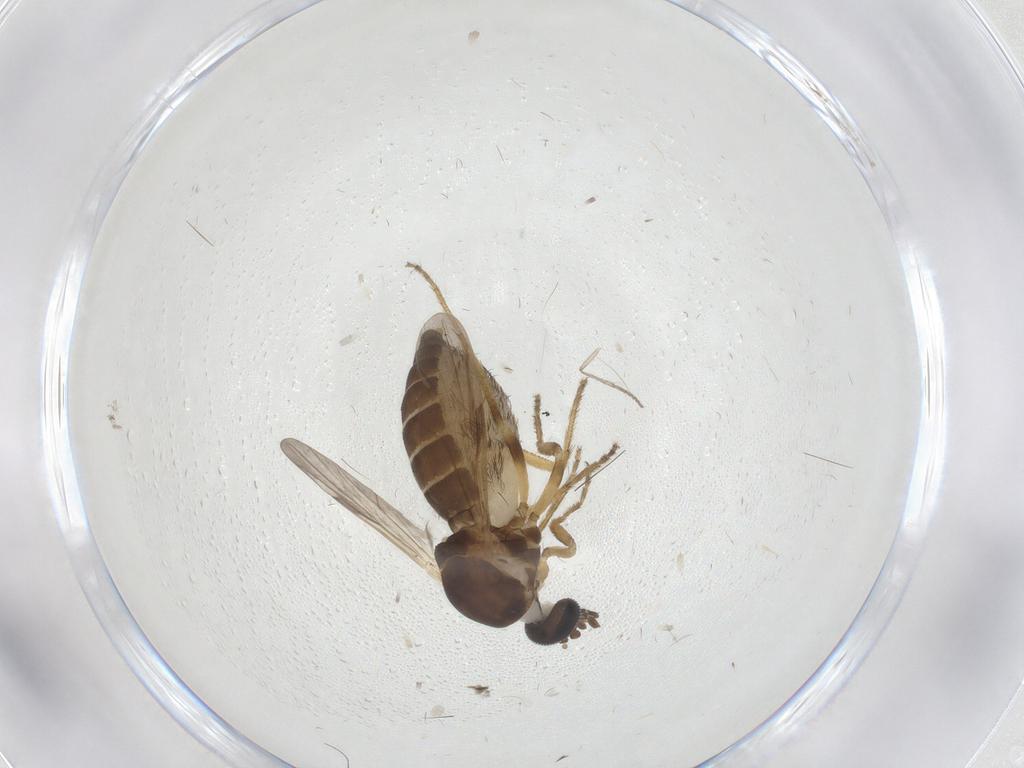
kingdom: Animalia
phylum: Arthropoda
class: Insecta
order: Diptera
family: Ceratopogonidae
